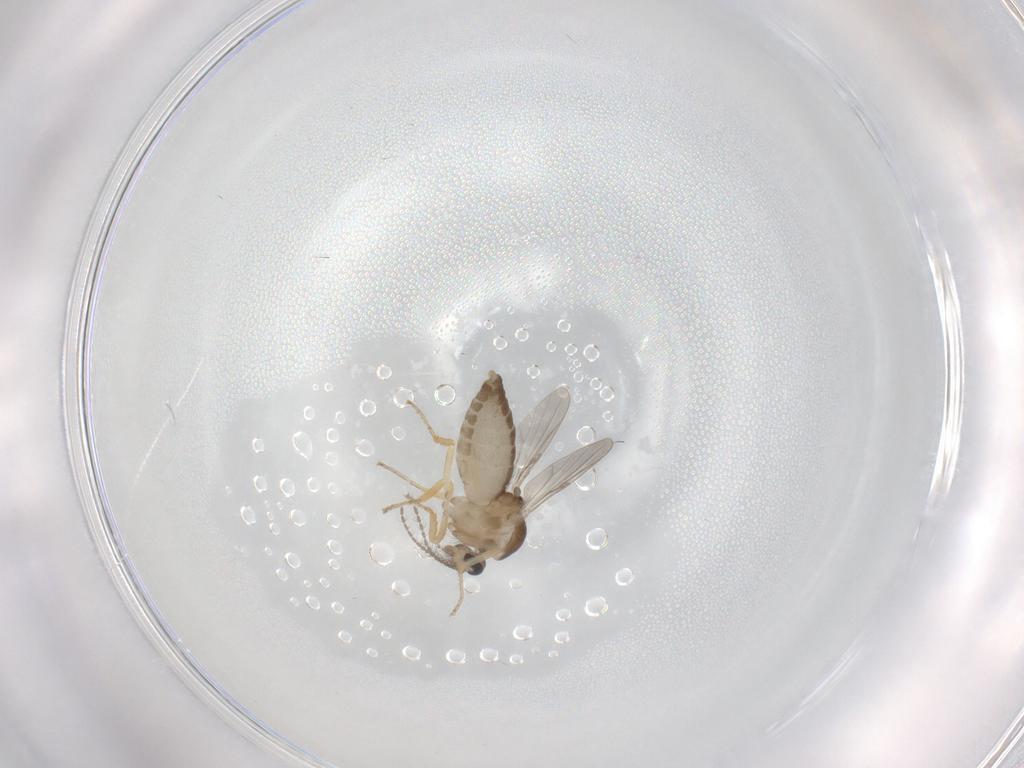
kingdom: Animalia
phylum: Arthropoda
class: Insecta
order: Diptera
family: Ceratopogonidae
